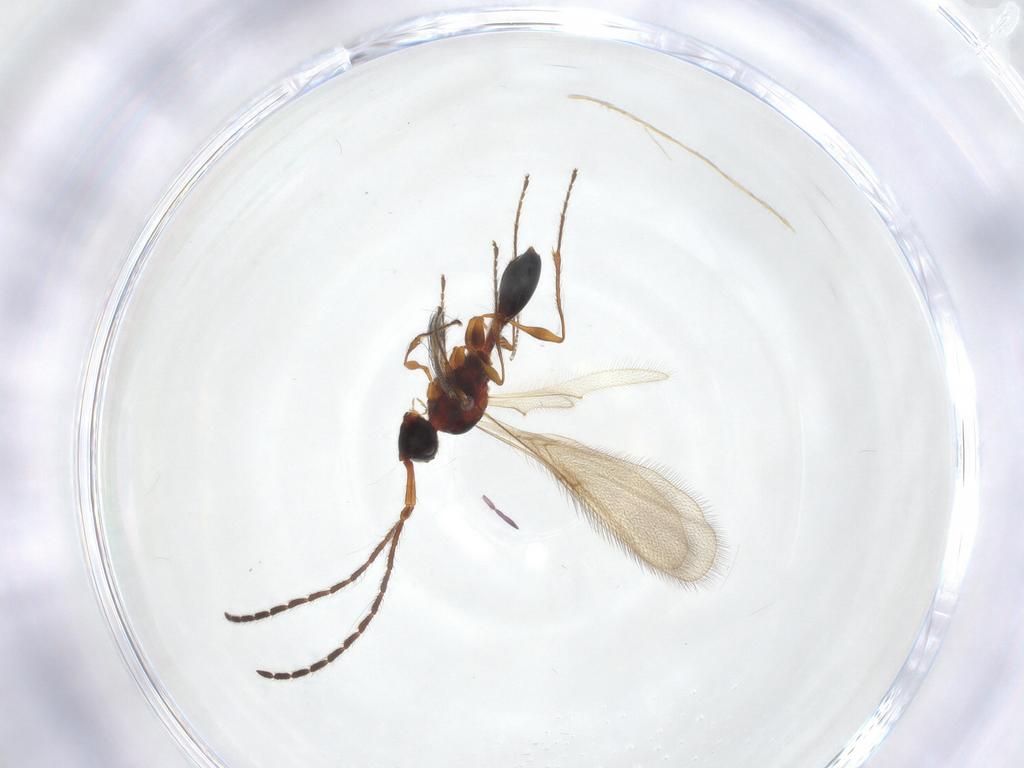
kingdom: Animalia
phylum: Arthropoda
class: Insecta
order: Hymenoptera
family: Diapriidae
